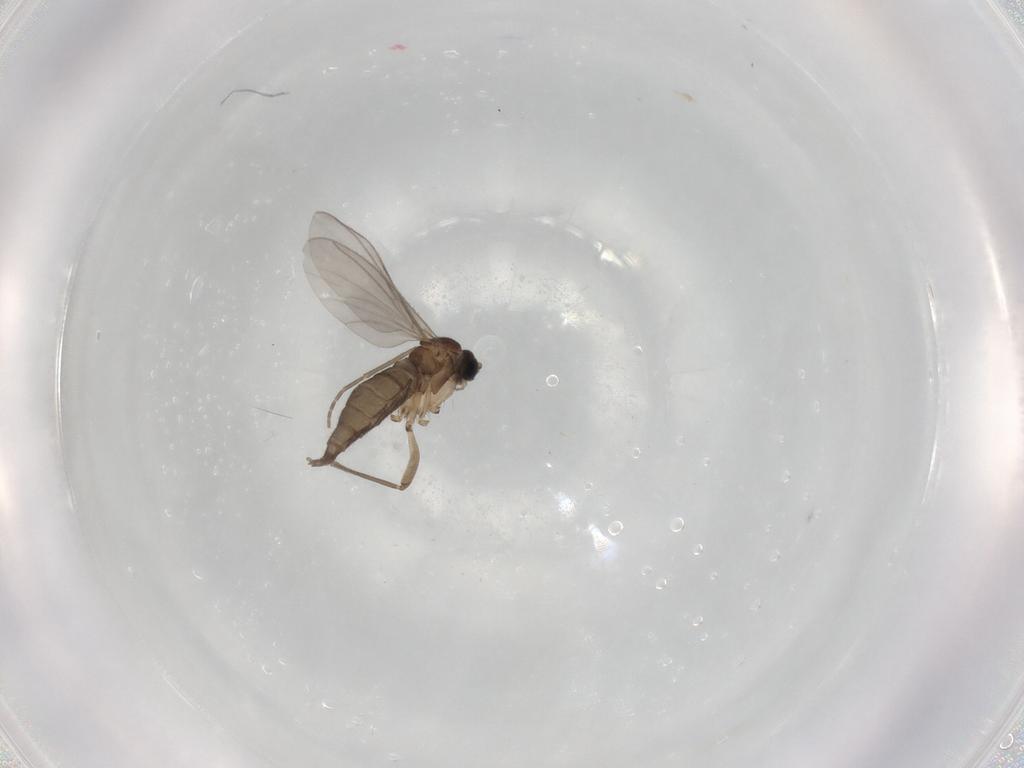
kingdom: Animalia
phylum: Arthropoda
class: Insecta
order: Diptera
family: Sciaridae
